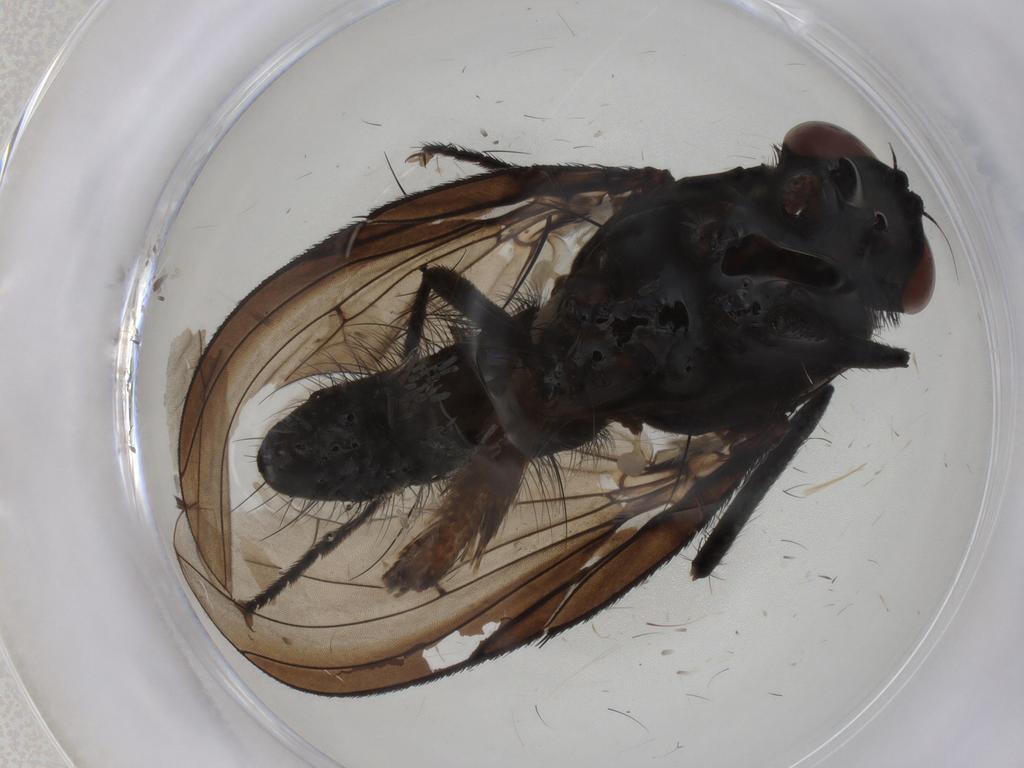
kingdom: Animalia
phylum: Arthropoda
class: Insecta
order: Diptera
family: Anthomyiidae
